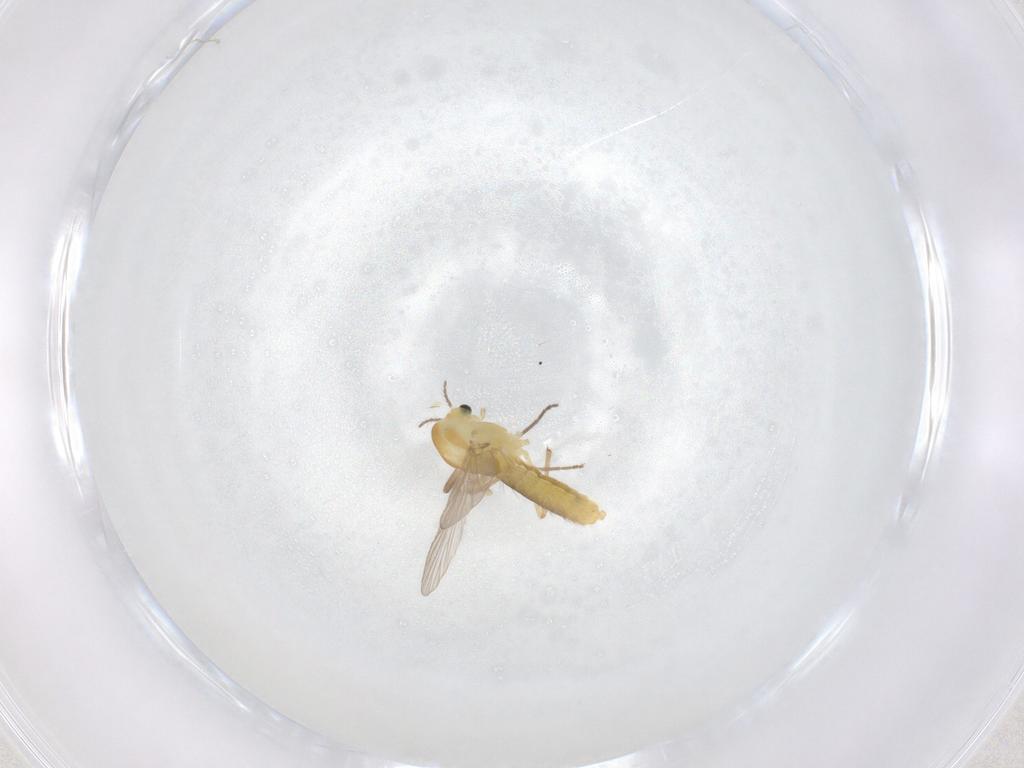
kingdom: Animalia
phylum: Arthropoda
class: Insecta
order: Diptera
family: Chironomidae
